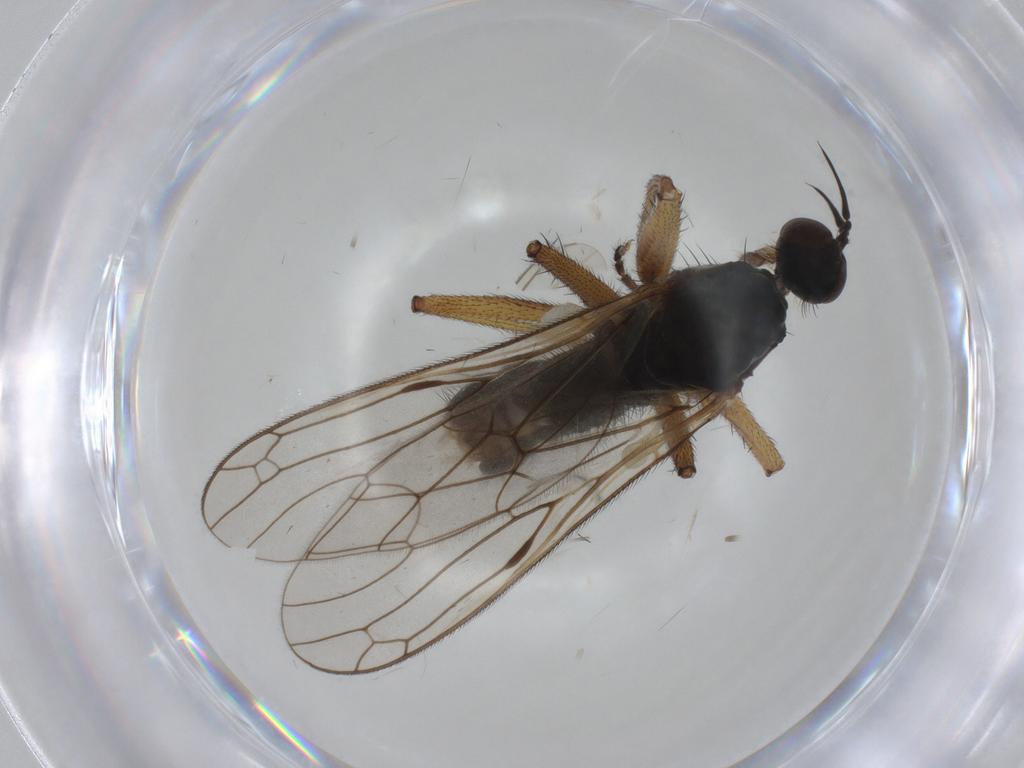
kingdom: Animalia
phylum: Arthropoda
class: Insecta
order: Diptera
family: Empididae
